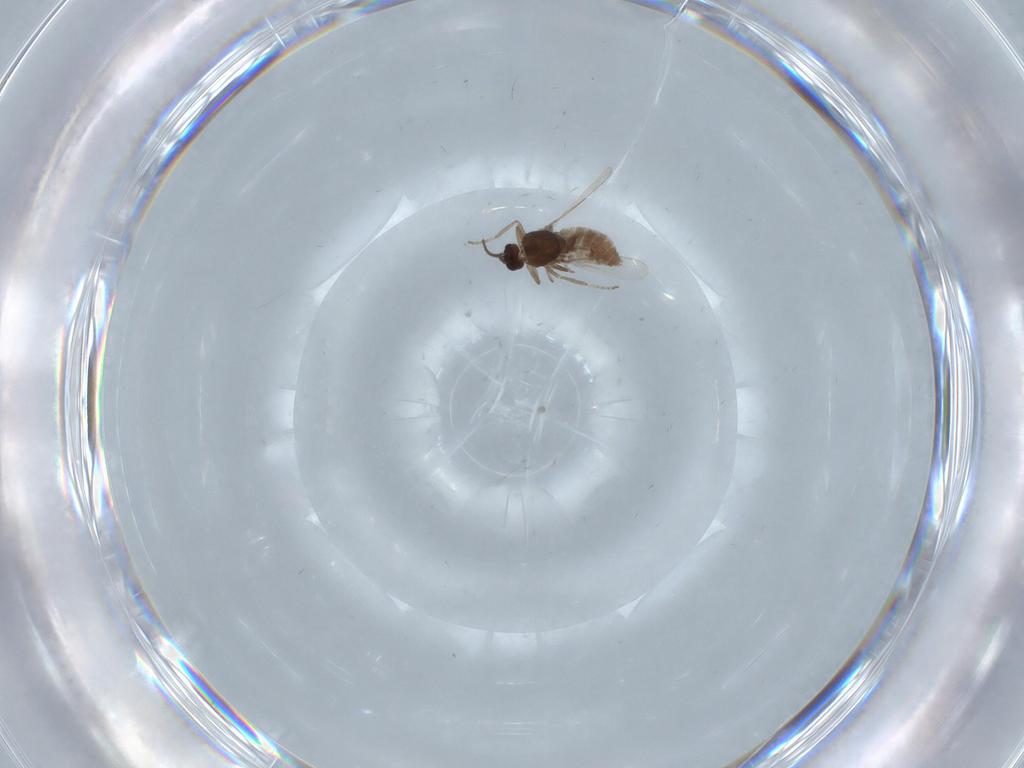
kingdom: Animalia
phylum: Arthropoda
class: Insecta
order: Diptera
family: Ceratopogonidae
